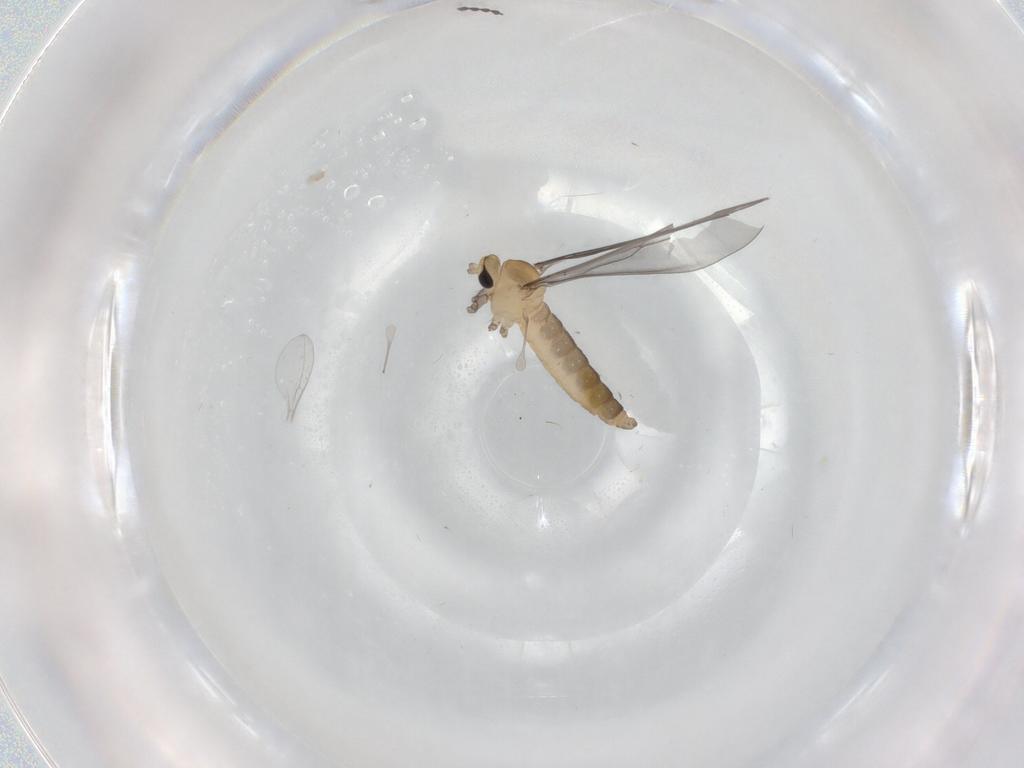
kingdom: Animalia
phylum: Arthropoda
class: Insecta
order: Diptera
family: Cecidomyiidae
